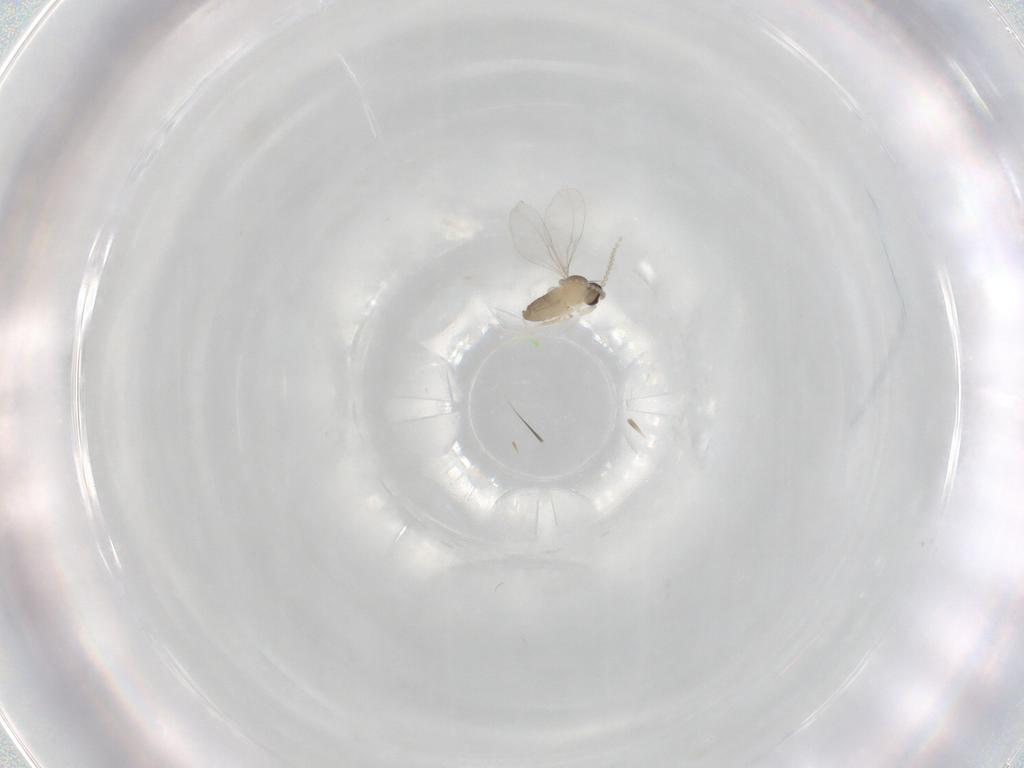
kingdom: Animalia
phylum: Arthropoda
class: Insecta
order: Diptera
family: Cecidomyiidae
